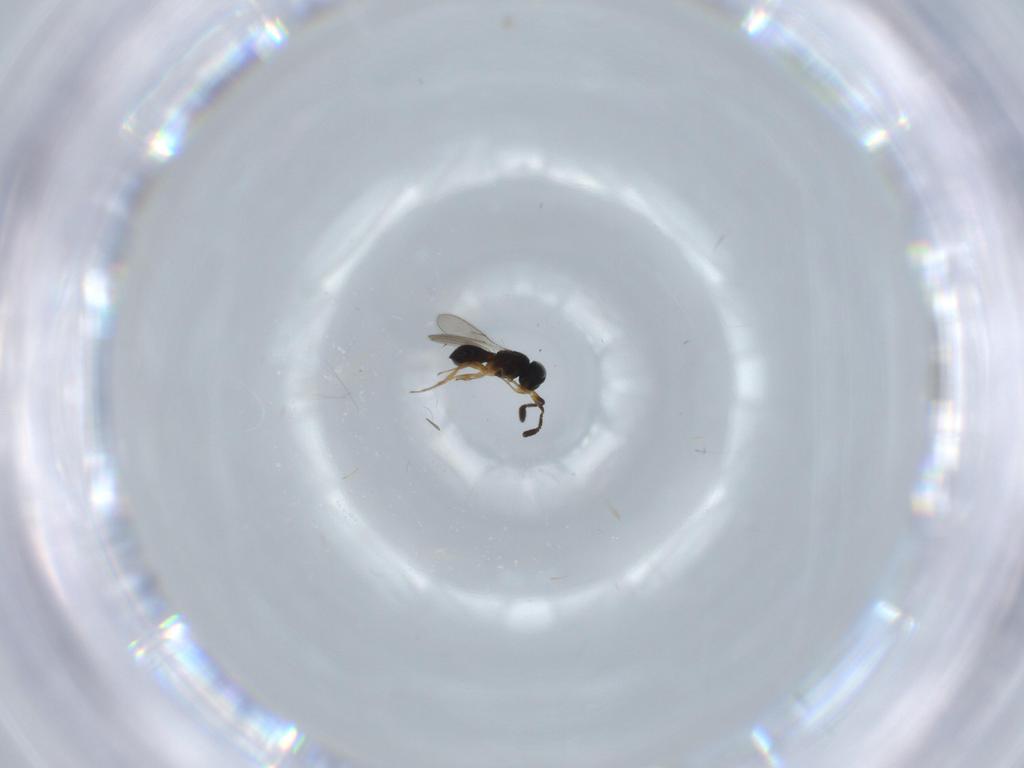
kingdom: Animalia
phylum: Arthropoda
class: Insecta
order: Hymenoptera
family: Scelionidae
